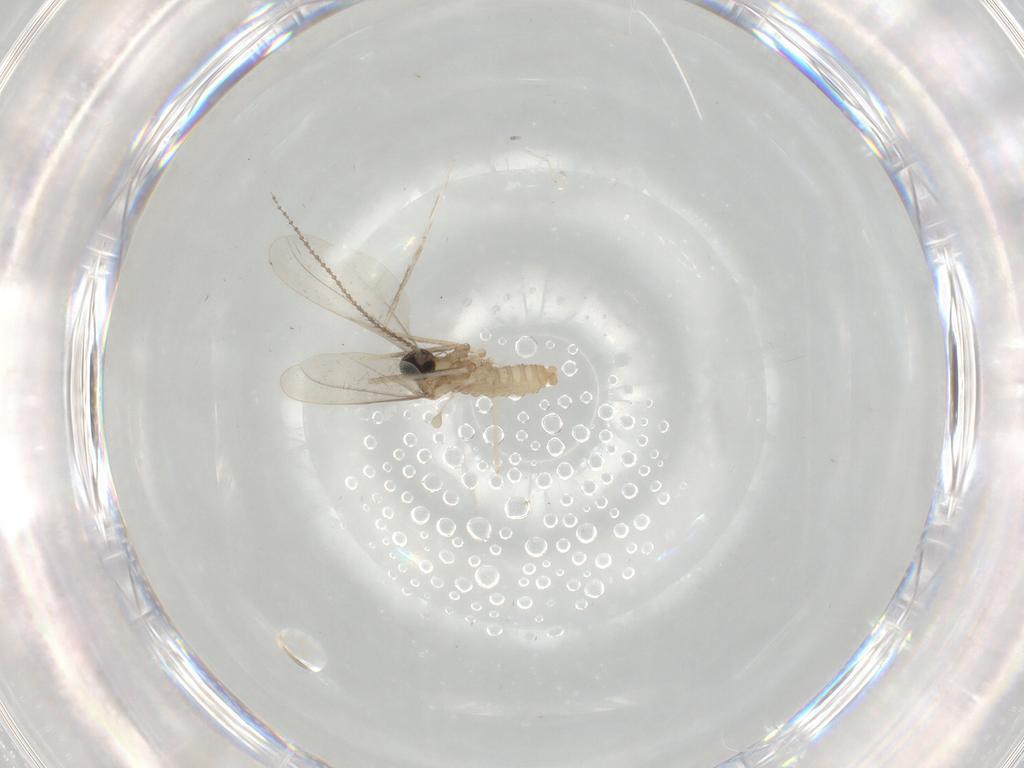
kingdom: Animalia
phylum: Arthropoda
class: Insecta
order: Diptera
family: Cecidomyiidae
